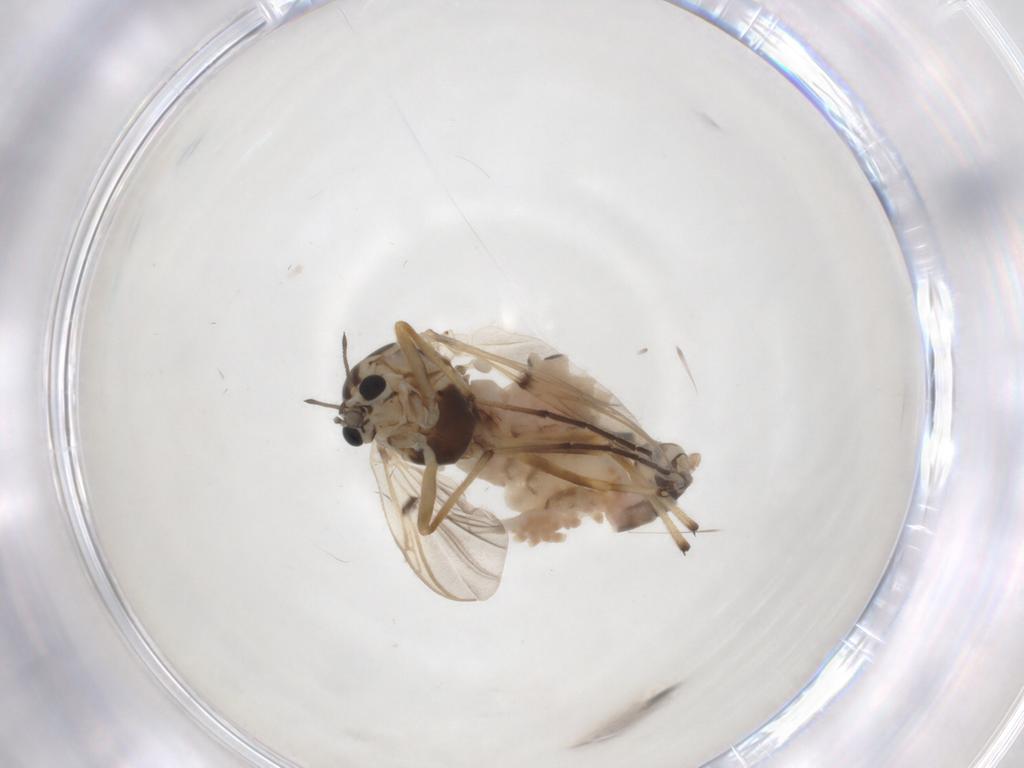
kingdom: Animalia
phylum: Arthropoda
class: Insecta
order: Diptera
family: Chironomidae
